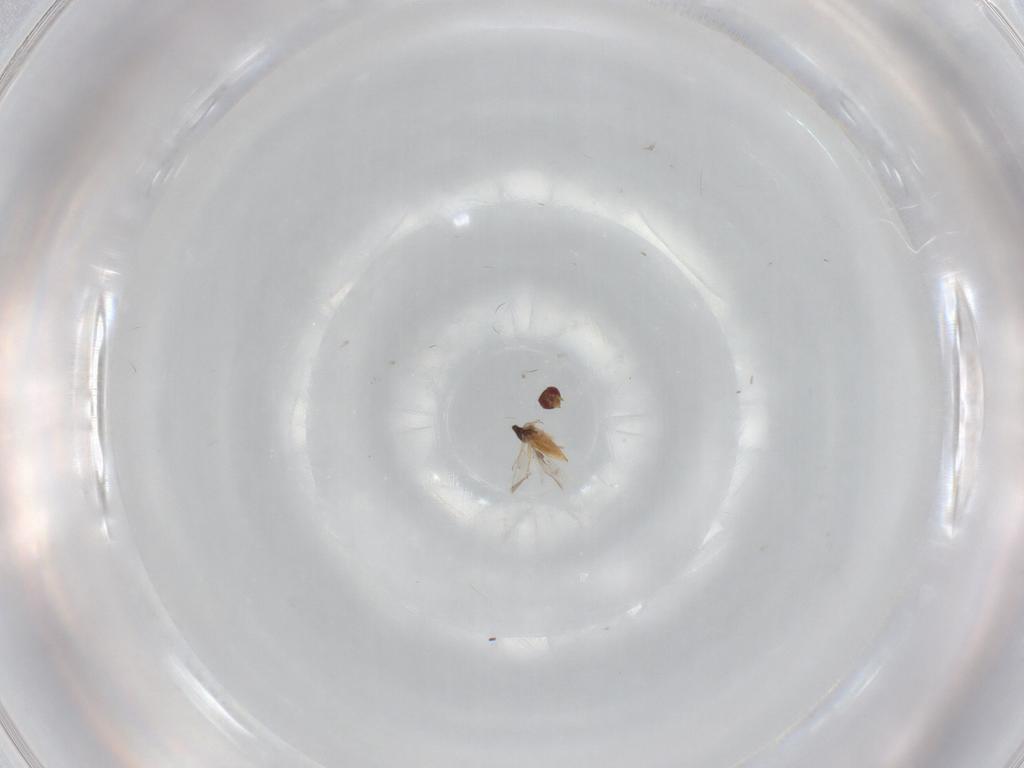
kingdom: Animalia
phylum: Arthropoda
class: Insecta
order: Hymenoptera
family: Trichogrammatidae
